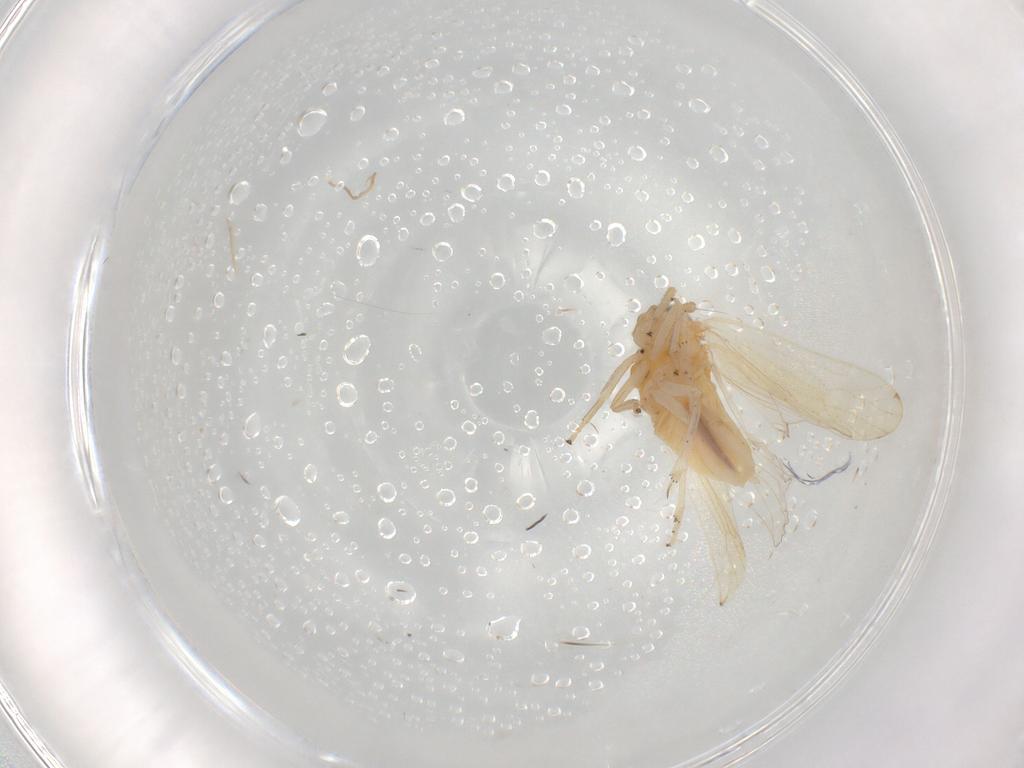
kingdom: Animalia
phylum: Arthropoda
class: Insecta
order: Hemiptera
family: Delphacidae
